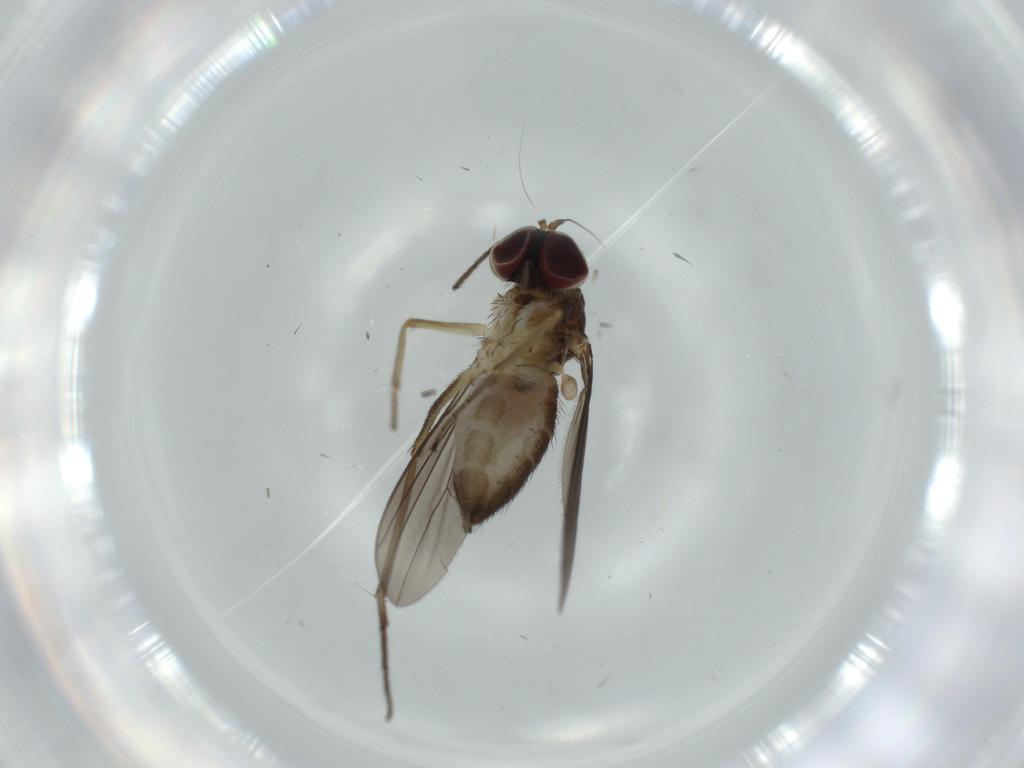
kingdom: Animalia
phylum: Arthropoda
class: Insecta
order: Diptera
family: Dolichopodidae
